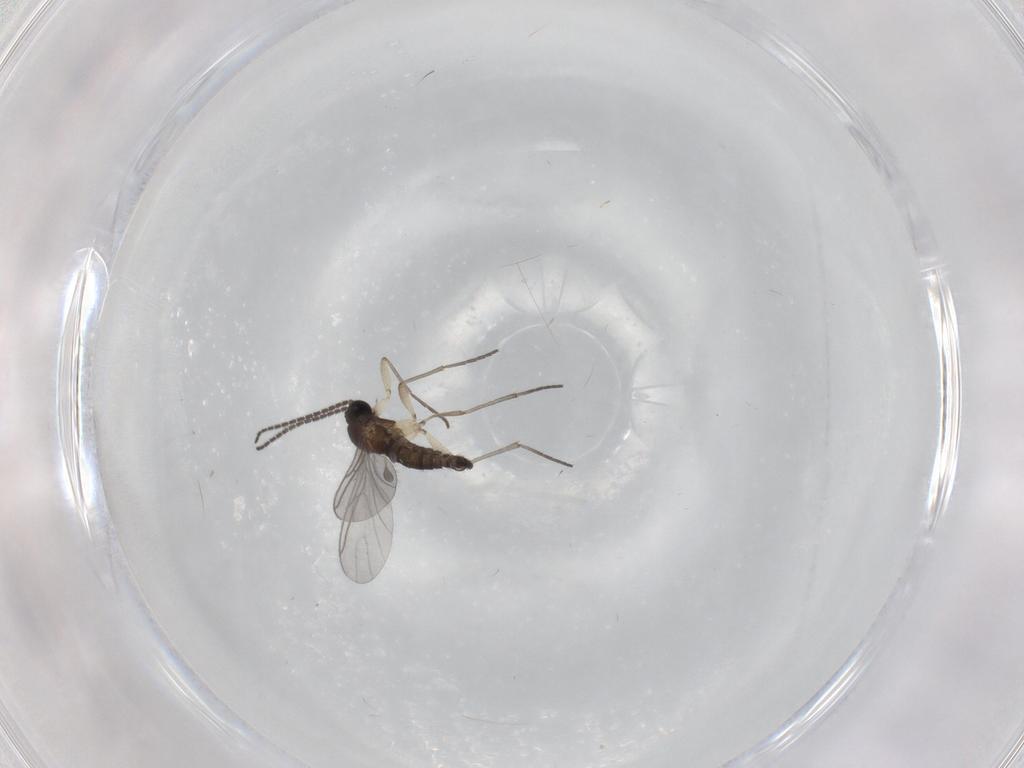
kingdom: Animalia
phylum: Arthropoda
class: Insecta
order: Diptera
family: Sciaridae
